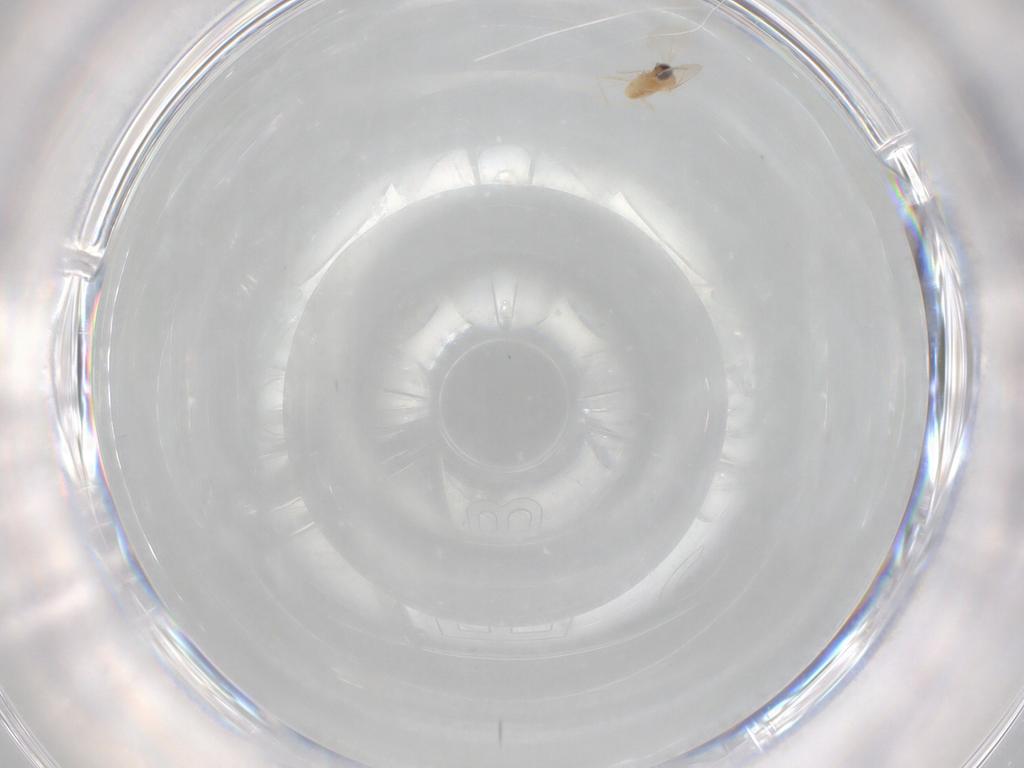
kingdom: Animalia
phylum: Arthropoda
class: Insecta
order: Diptera
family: Cecidomyiidae
